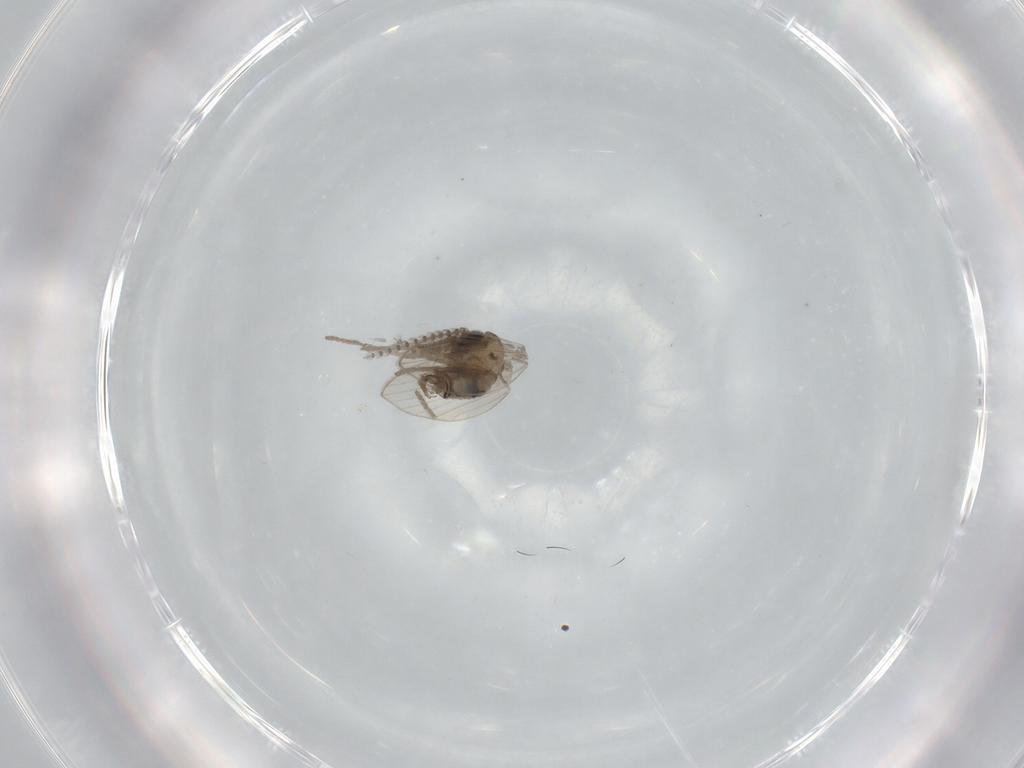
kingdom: Animalia
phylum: Arthropoda
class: Insecta
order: Diptera
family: Psychodidae
